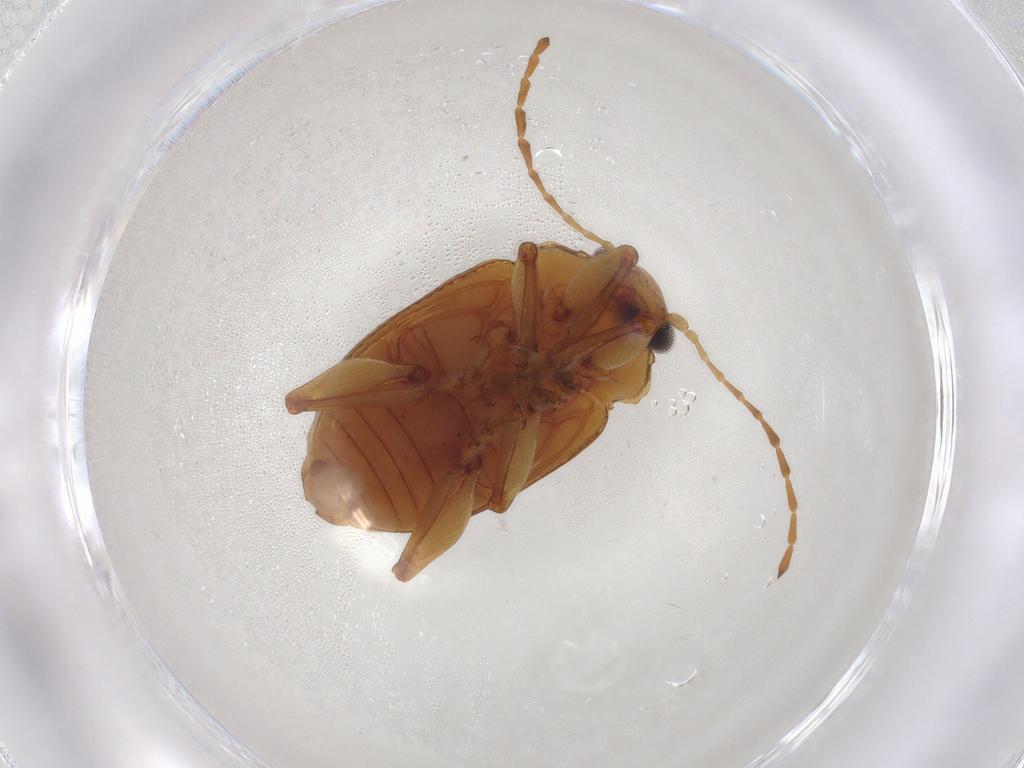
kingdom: Animalia
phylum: Arthropoda
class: Insecta
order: Coleoptera
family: Chrysomelidae
